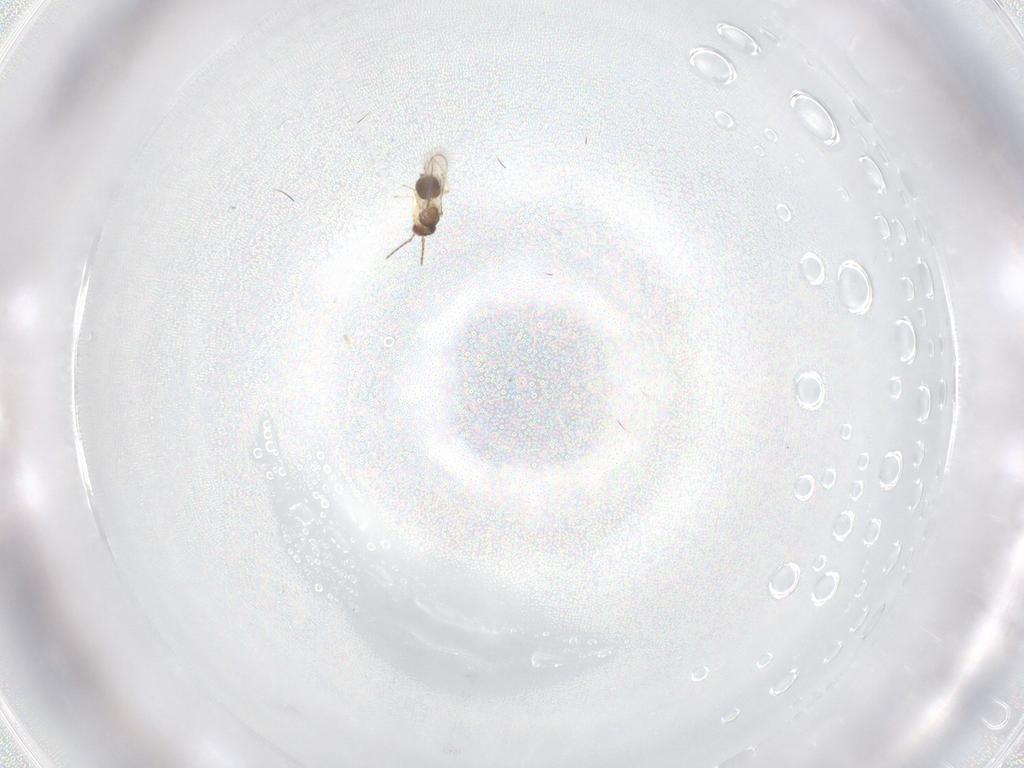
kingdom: Animalia
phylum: Arthropoda
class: Insecta
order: Hymenoptera
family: Eulophidae
